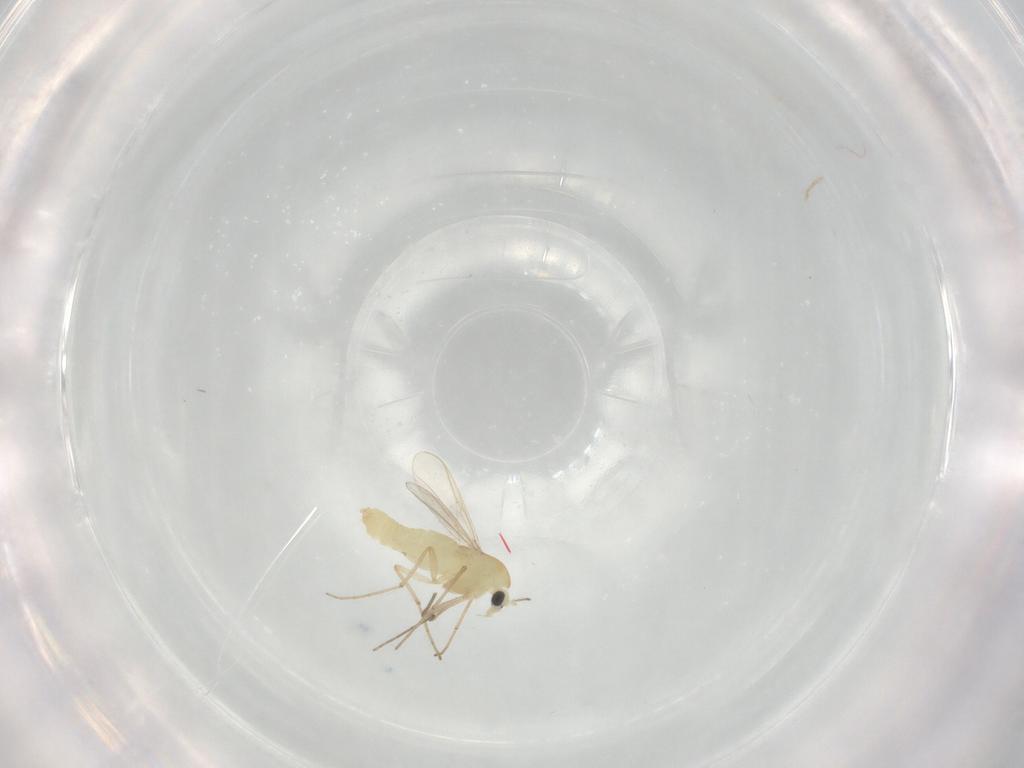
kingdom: Animalia
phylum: Arthropoda
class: Insecta
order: Diptera
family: Chironomidae
